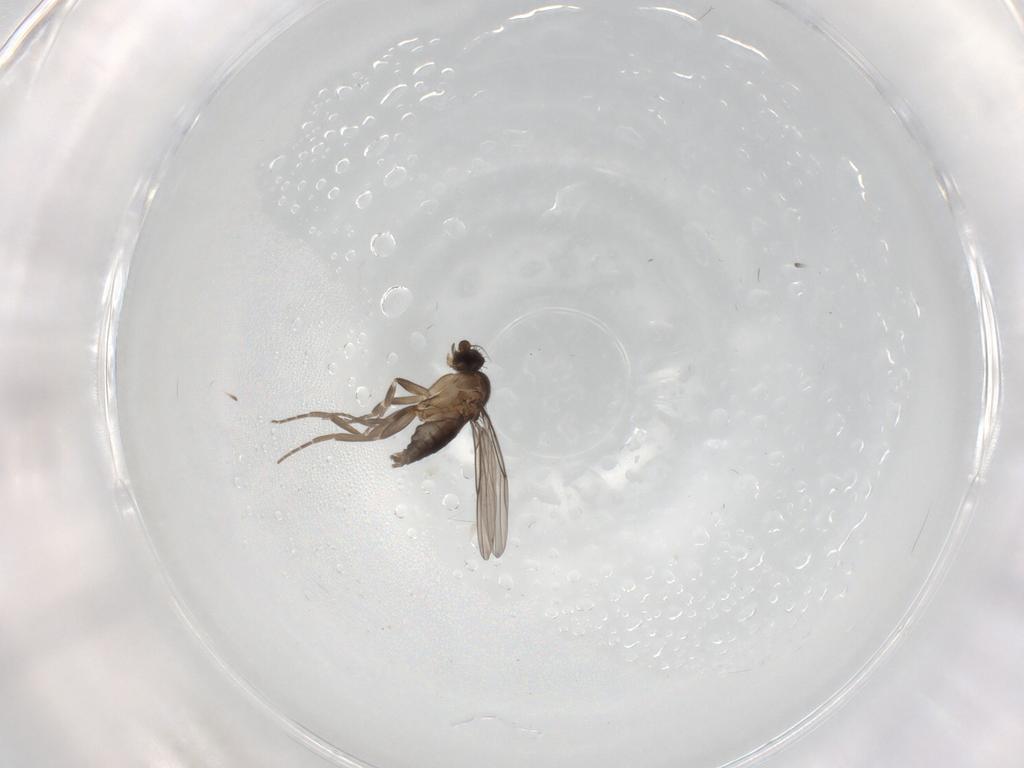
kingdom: Animalia
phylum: Arthropoda
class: Insecta
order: Diptera
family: Phoridae
